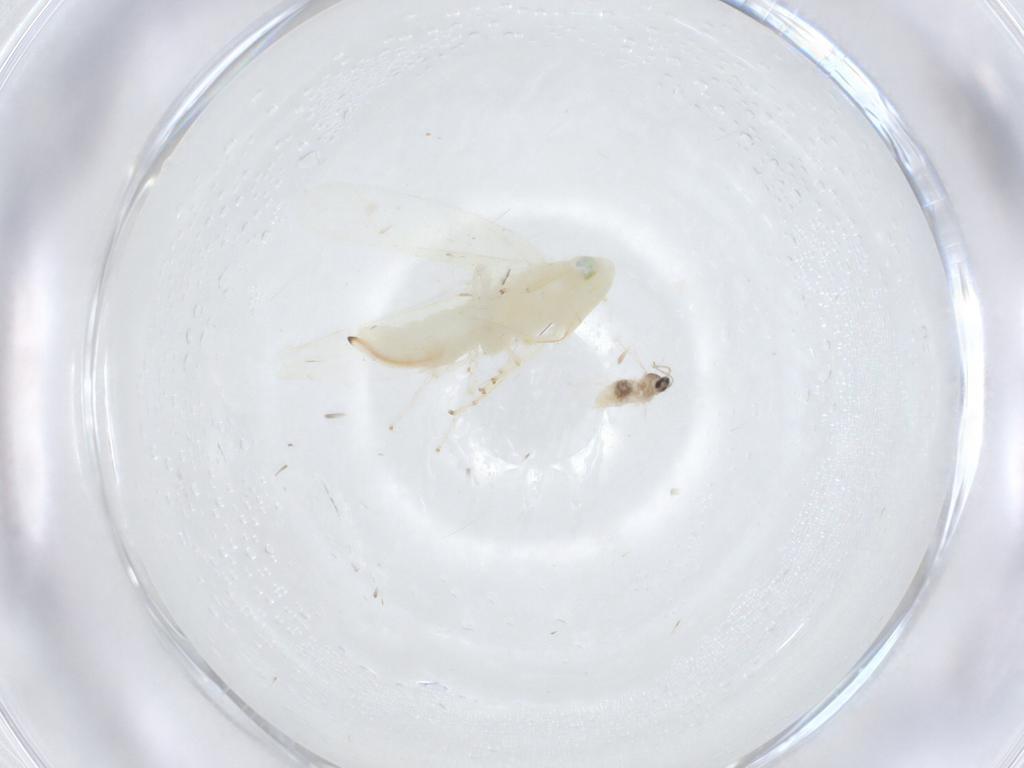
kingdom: Animalia
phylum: Arthropoda
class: Insecta
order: Hemiptera
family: Cicadellidae
